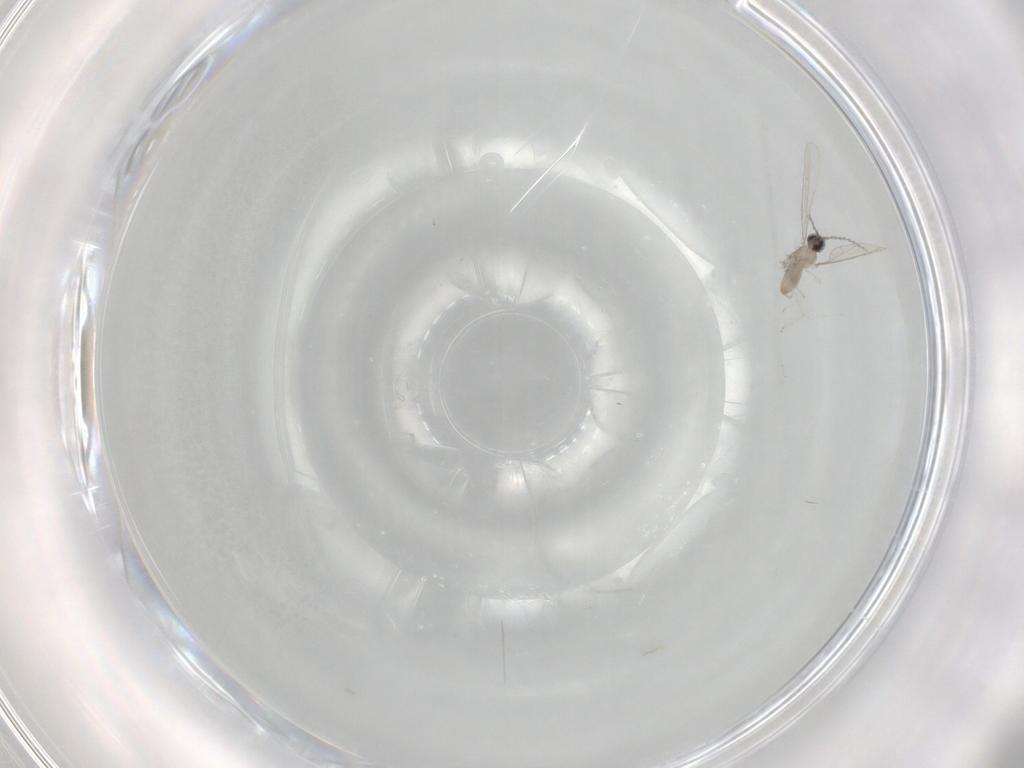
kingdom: Animalia
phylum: Arthropoda
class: Insecta
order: Diptera
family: Cecidomyiidae
